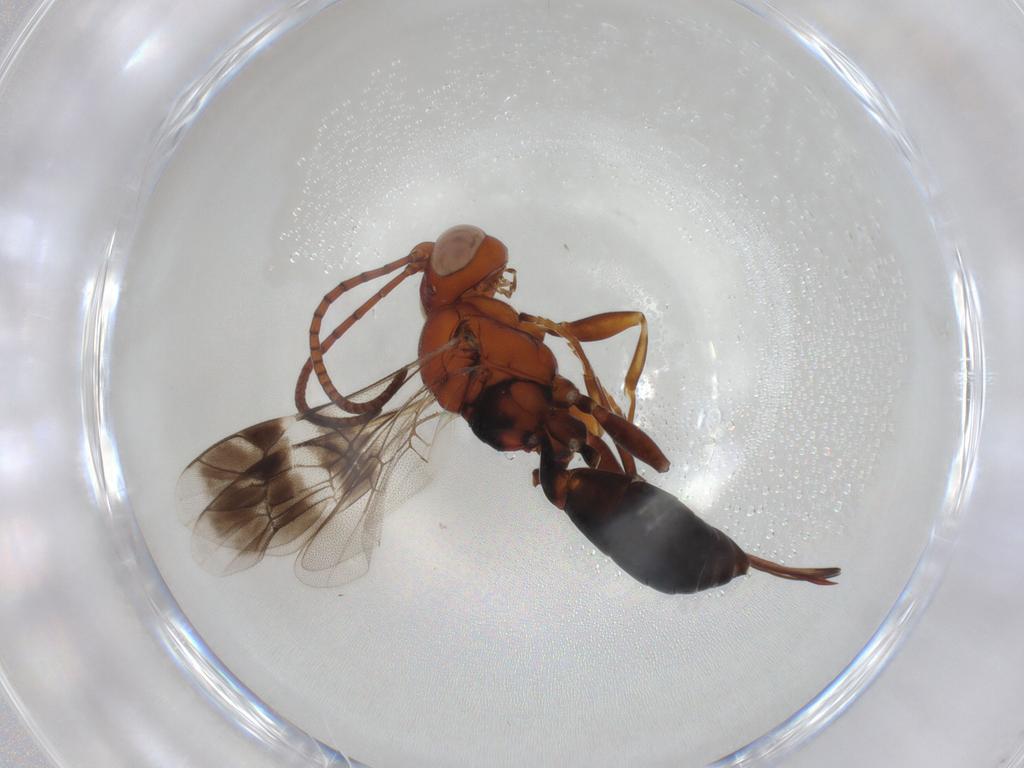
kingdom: Animalia
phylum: Arthropoda
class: Insecta
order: Hymenoptera
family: Scelionidae
